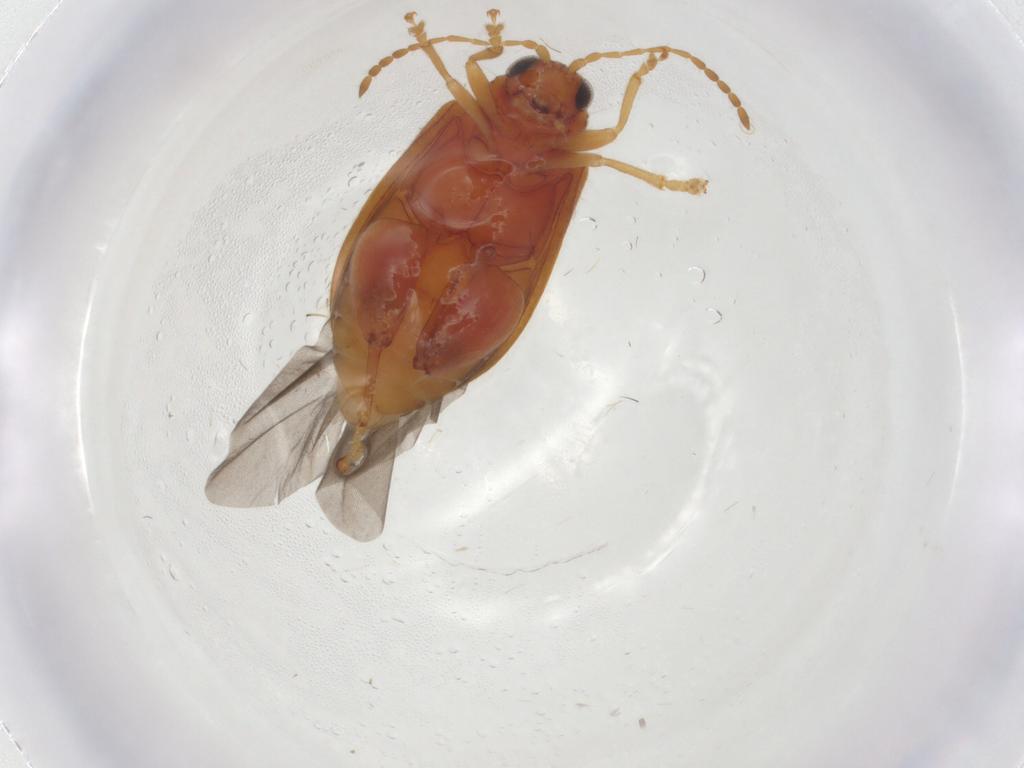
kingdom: Animalia
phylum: Arthropoda
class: Insecta
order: Coleoptera
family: Chrysomelidae
